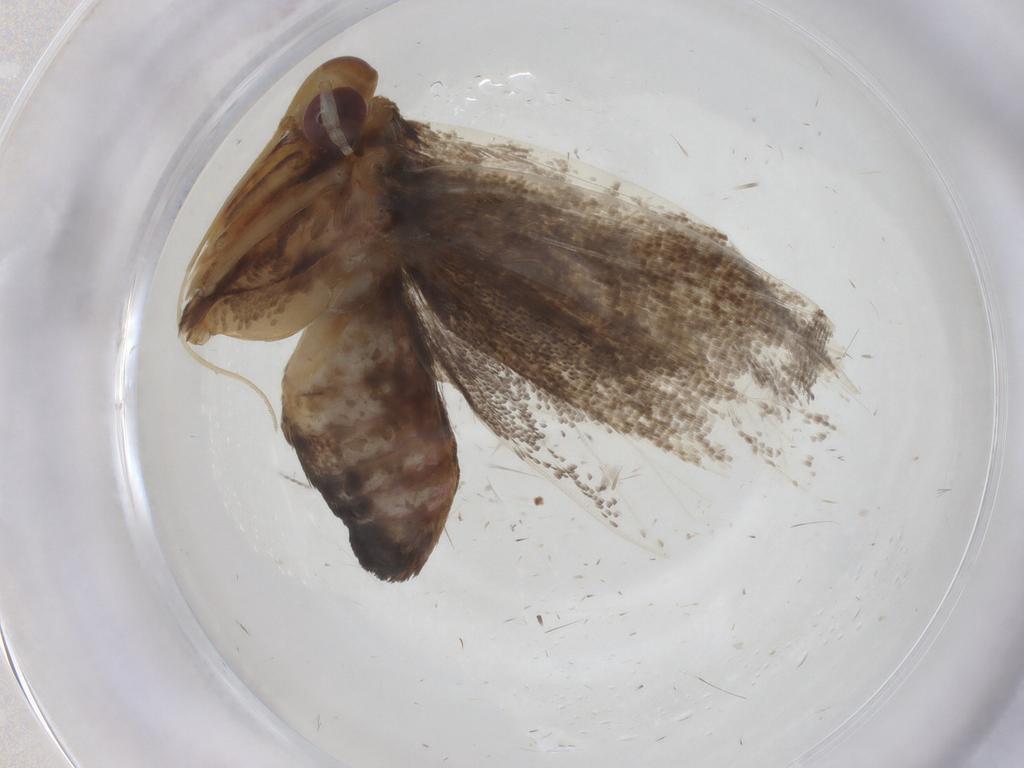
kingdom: Animalia
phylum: Arthropoda
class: Insecta
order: Lepidoptera
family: Lecithoceridae
